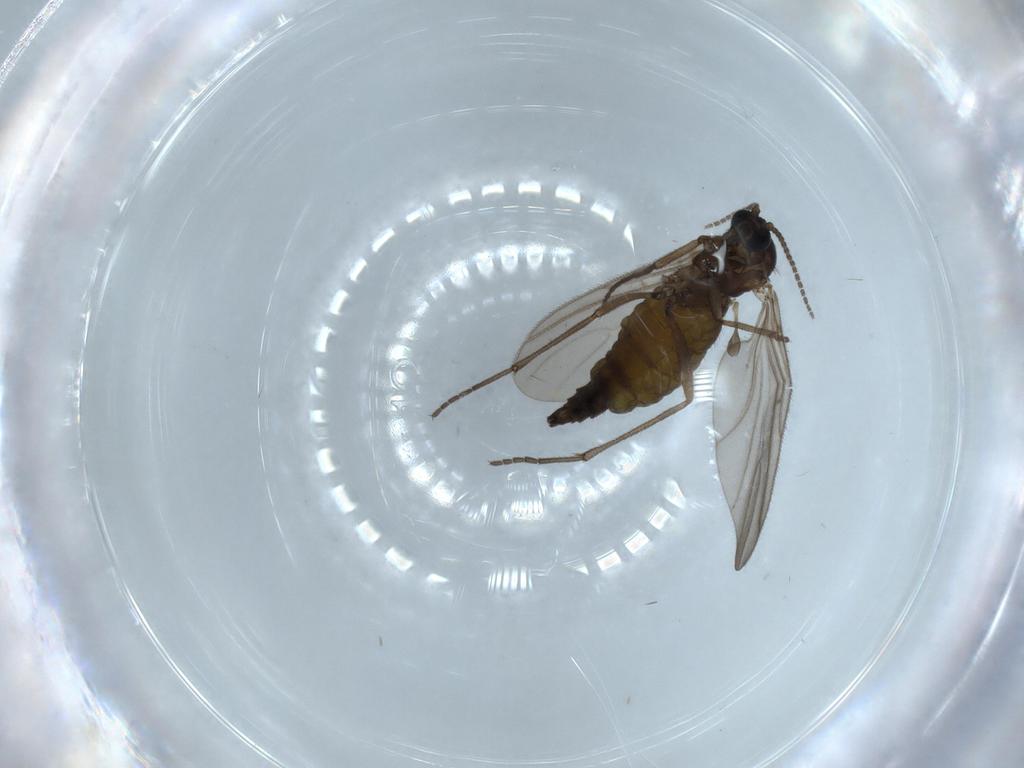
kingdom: Animalia
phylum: Arthropoda
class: Insecta
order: Diptera
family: Sciaridae
